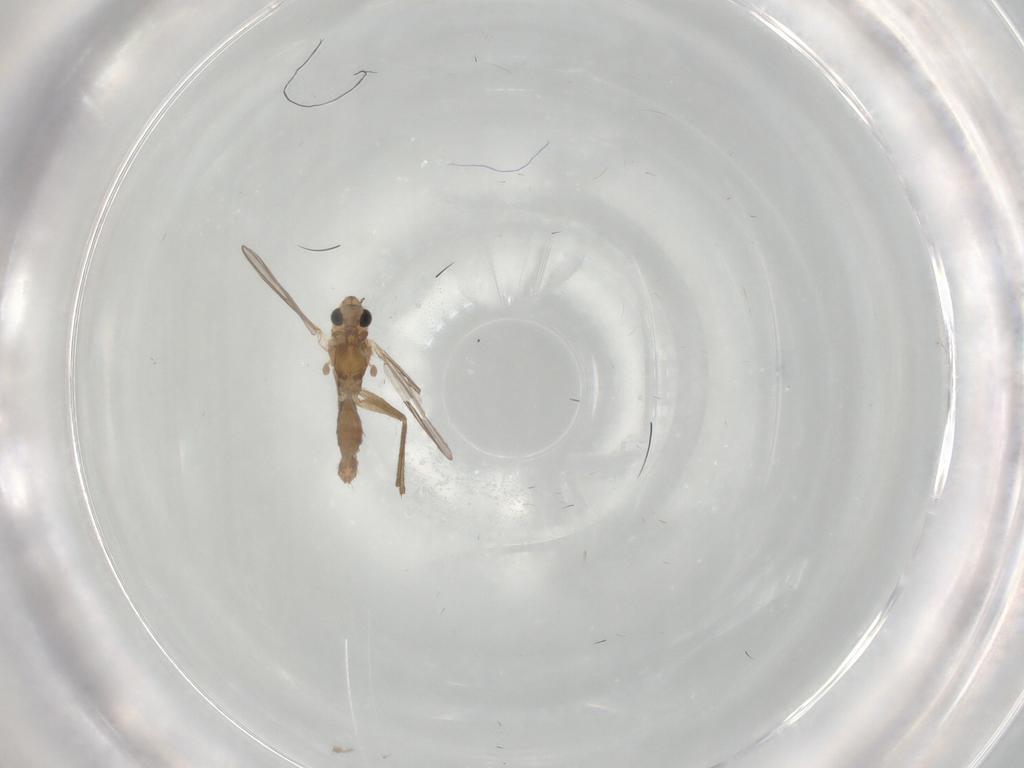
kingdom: Animalia
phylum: Arthropoda
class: Insecta
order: Diptera
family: Chironomidae
